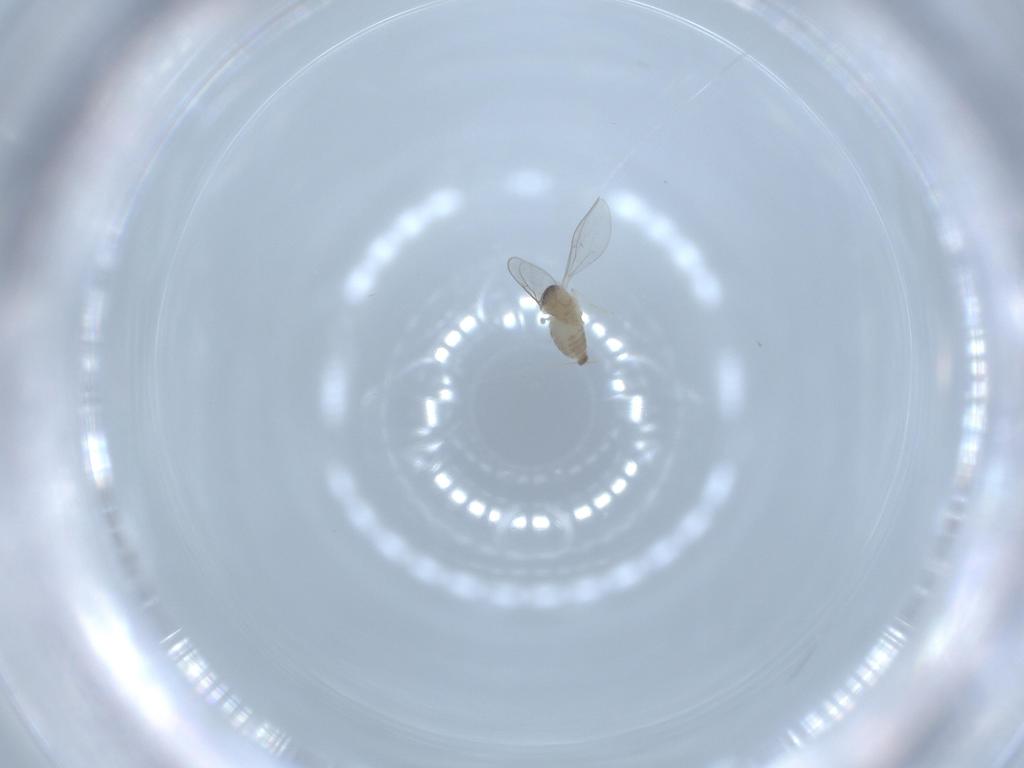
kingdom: Animalia
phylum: Arthropoda
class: Insecta
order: Diptera
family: Cecidomyiidae
